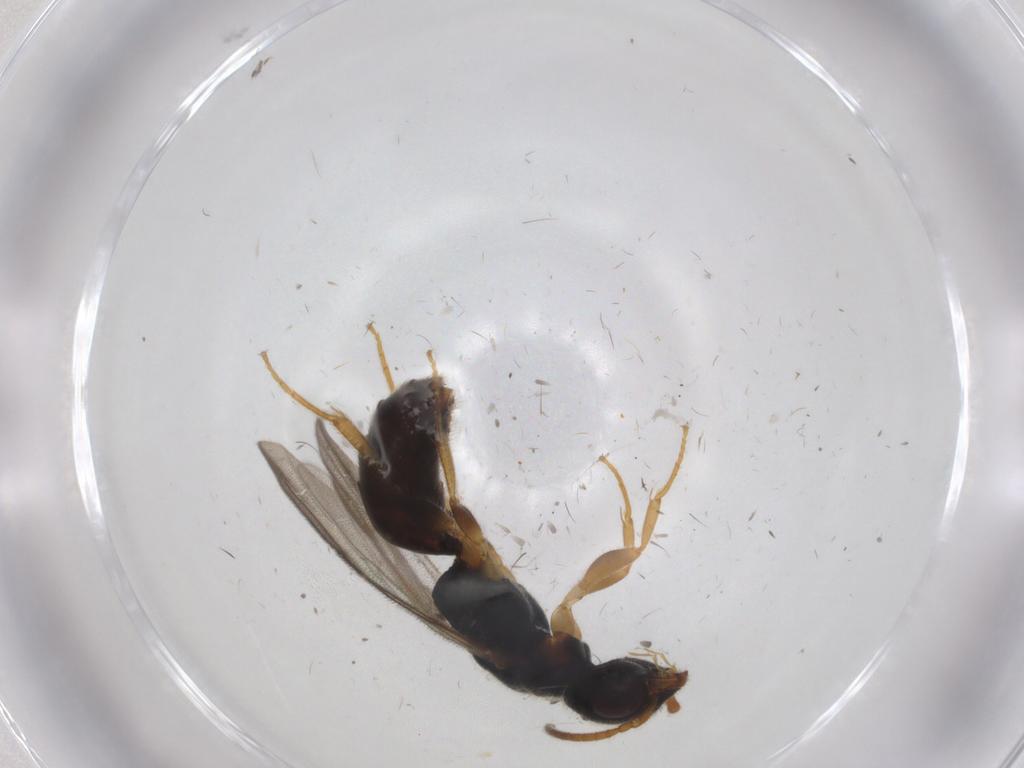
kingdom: Animalia
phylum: Arthropoda
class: Insecta
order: Hymenoptera
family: Bethylidae
